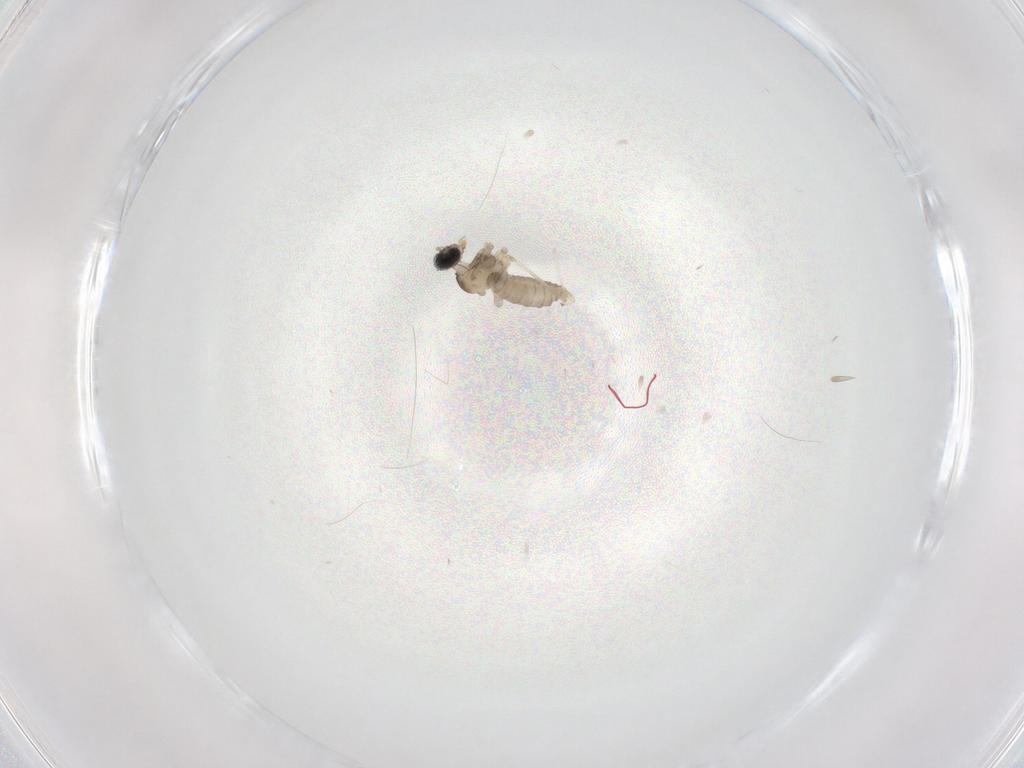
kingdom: Animalia
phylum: Arthropoda
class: Insecta
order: Diptera
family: Cecidomyiidae
